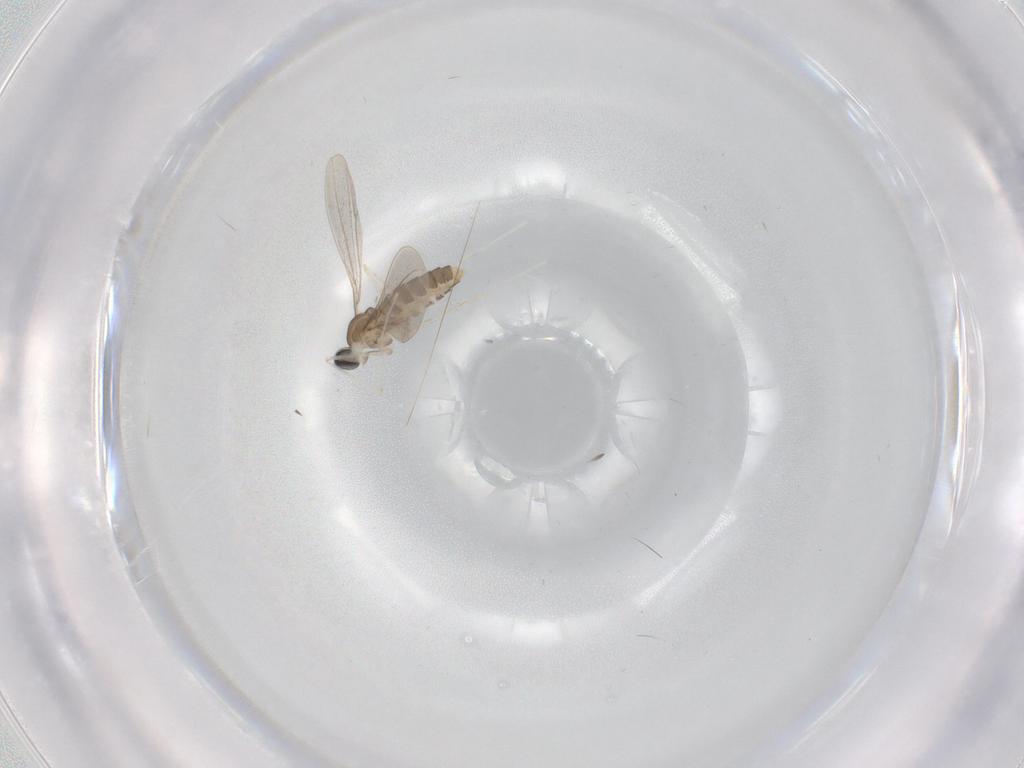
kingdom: Animalia
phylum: Arthropoda
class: Insecta
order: Diptera
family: Cecidomyiidae
